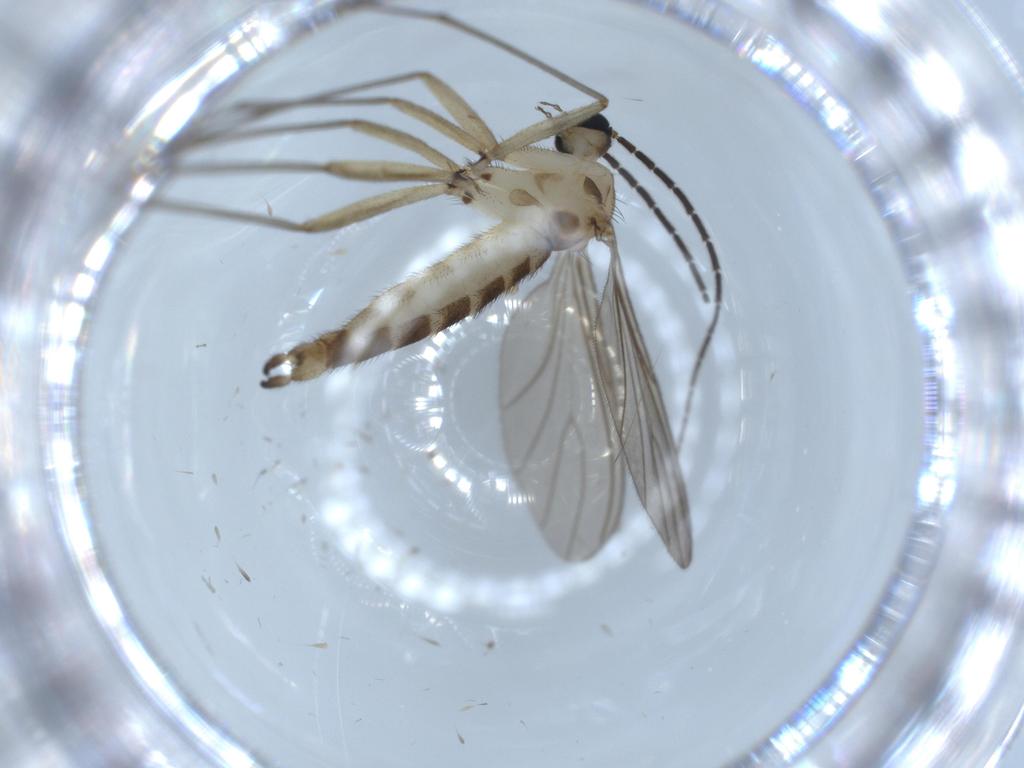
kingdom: Animalia
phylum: Arthropoda
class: Insecta
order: Diptera
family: Sciaridae
